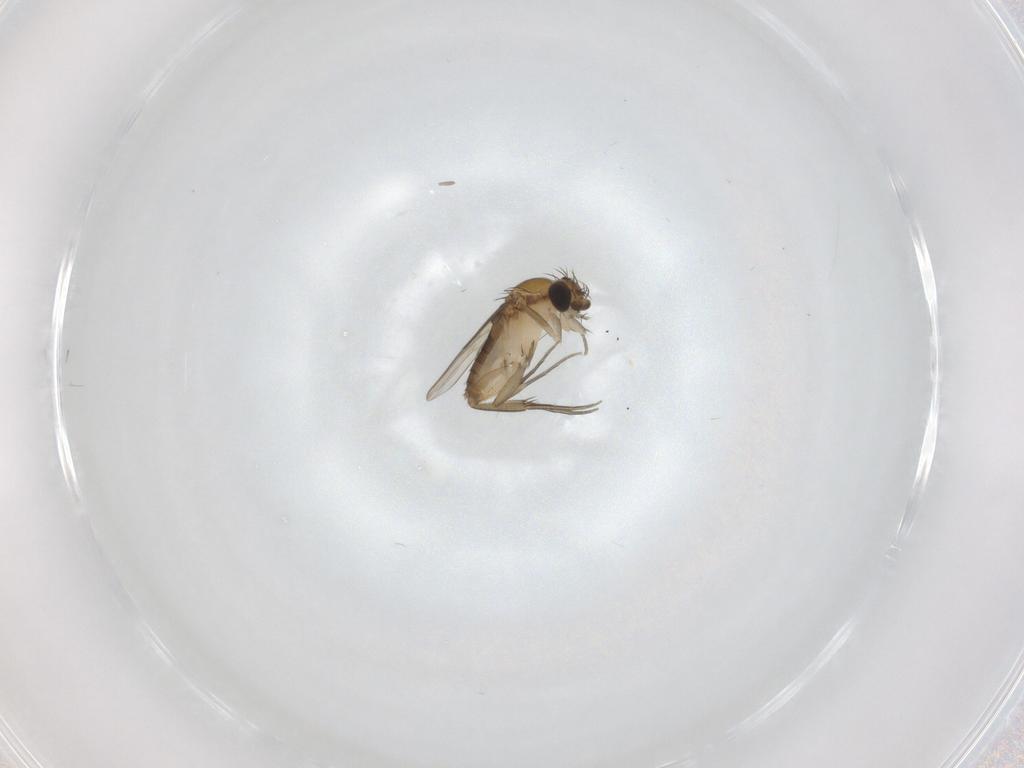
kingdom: Animalia
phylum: Arthropoda
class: Insecta
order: Diptera
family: Phoridae
